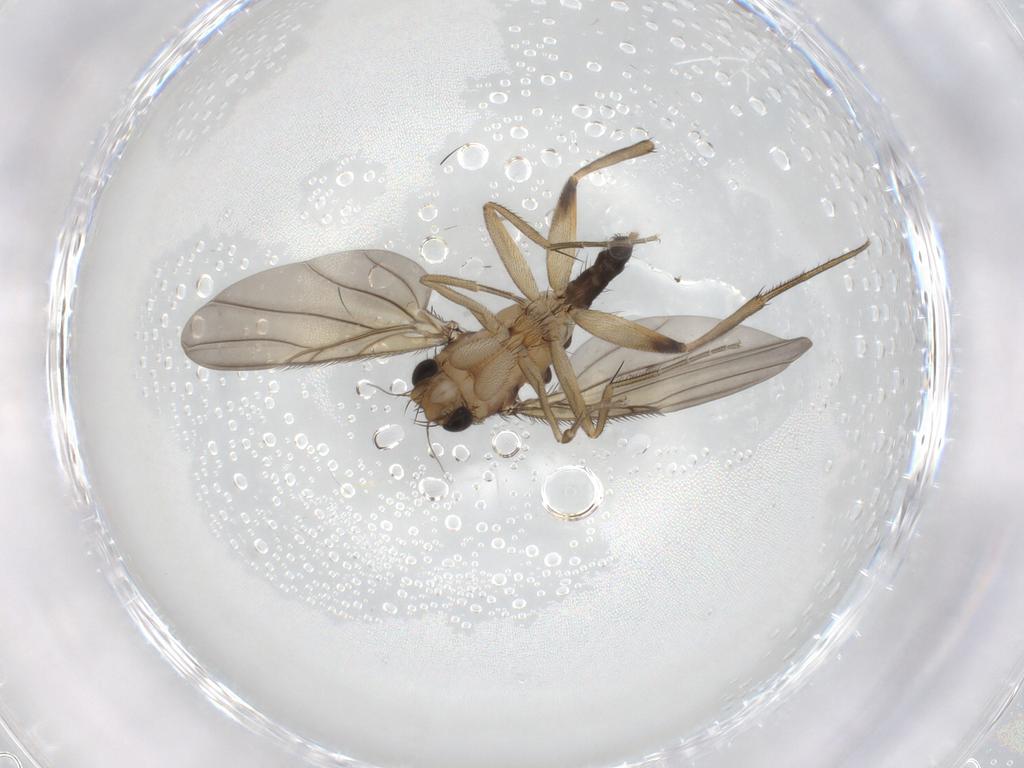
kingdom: Animalia
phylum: Arthropoda
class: Insecta
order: Diptera
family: Phoridae
